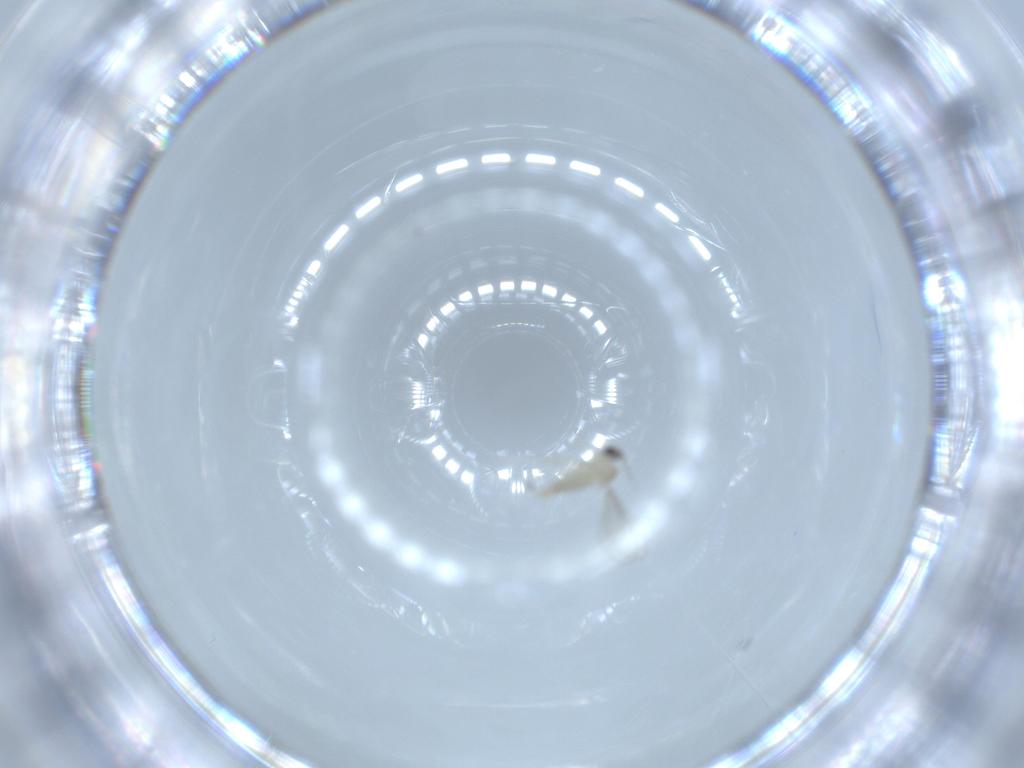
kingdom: Animalia
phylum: Arthropoda
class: Insecta
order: Diptera
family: Cecidomyiidae
